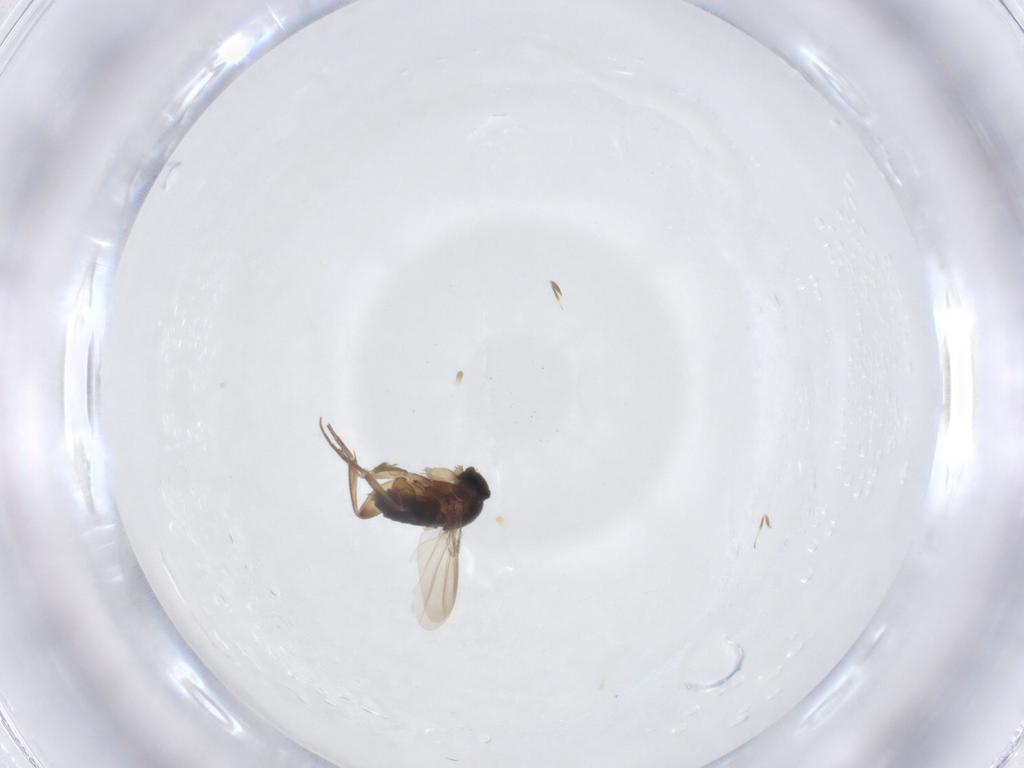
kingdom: Animalia
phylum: Arthropoda
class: Insecta
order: Diptera
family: Phoridae
